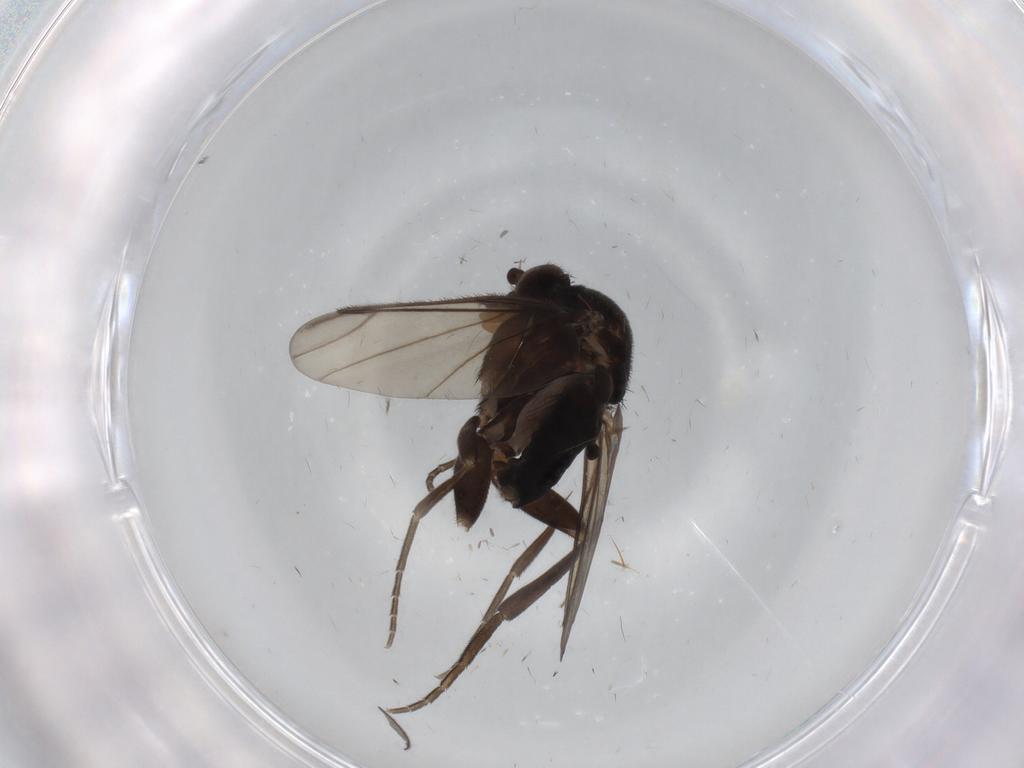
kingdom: Animalia
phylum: Arthropoda
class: Insecta
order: Diptera
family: Phoridae
